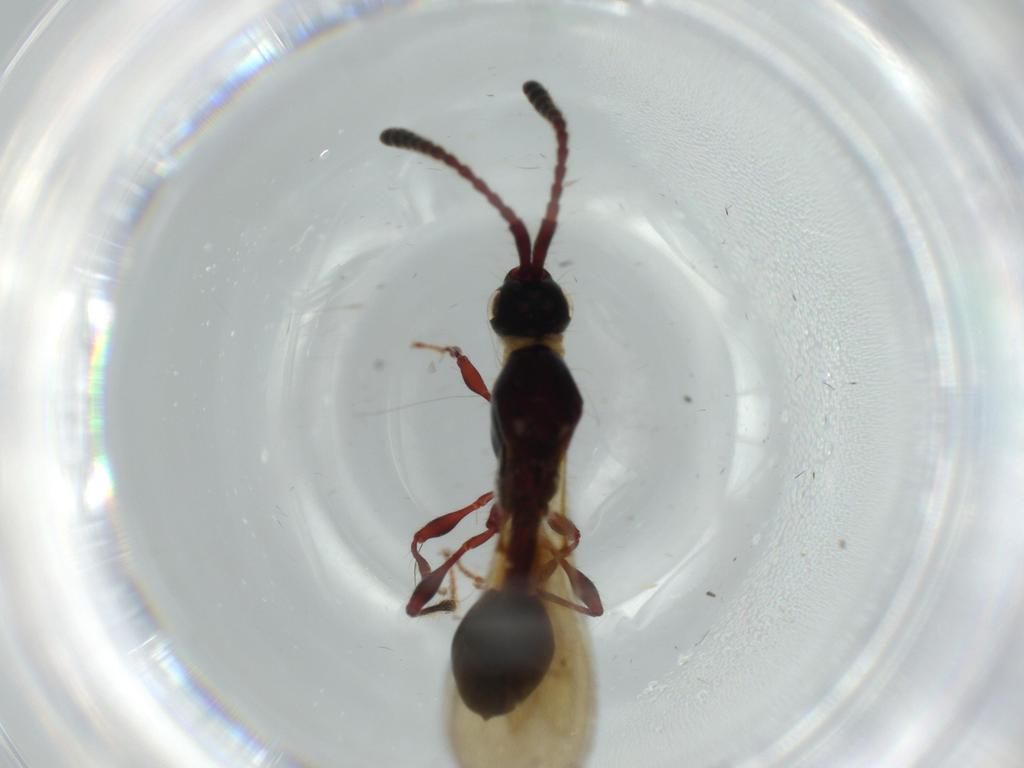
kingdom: Animalia
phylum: Arthropoda
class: Insecta
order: Hymenoptera
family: Diapriidae
